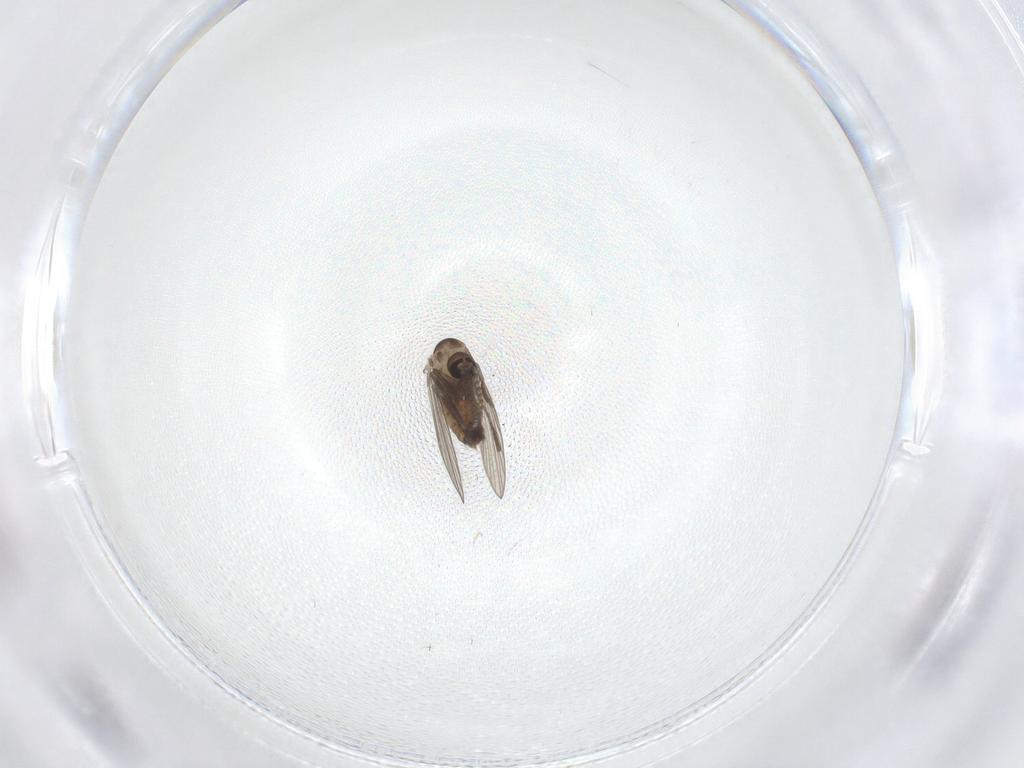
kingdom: Animalia
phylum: Arthropoda
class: Insecta
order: Diptera
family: Psychodidae
